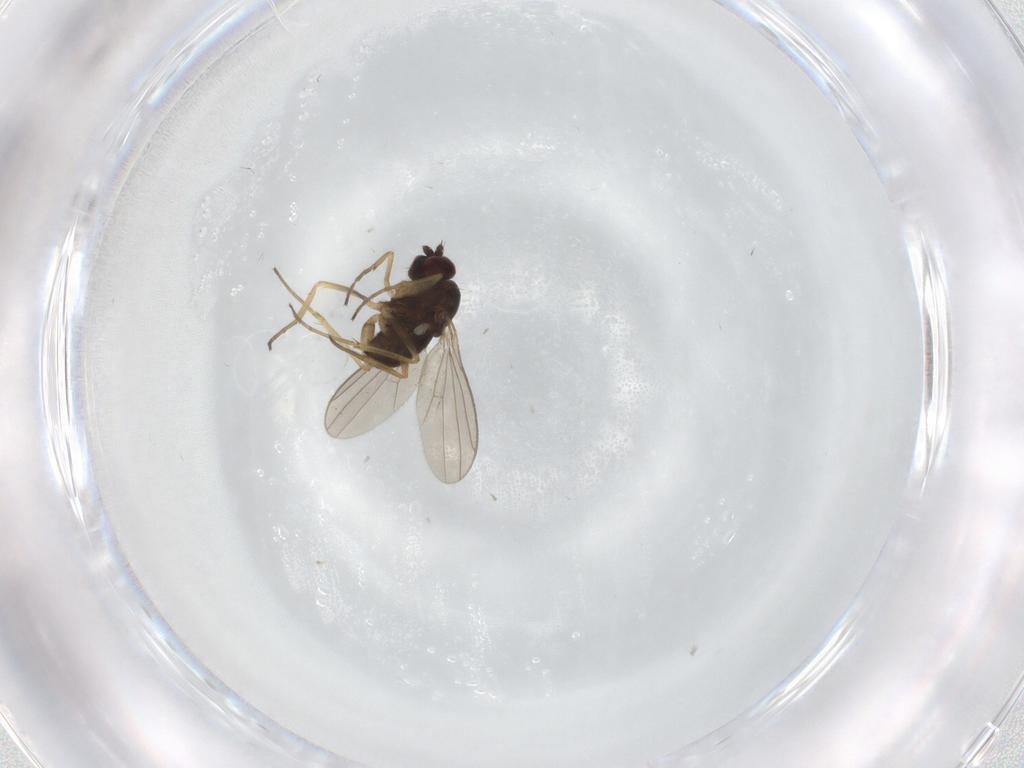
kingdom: Animalia
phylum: Arthropoda
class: Insecta
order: Diptera
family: Dolichopodidae
